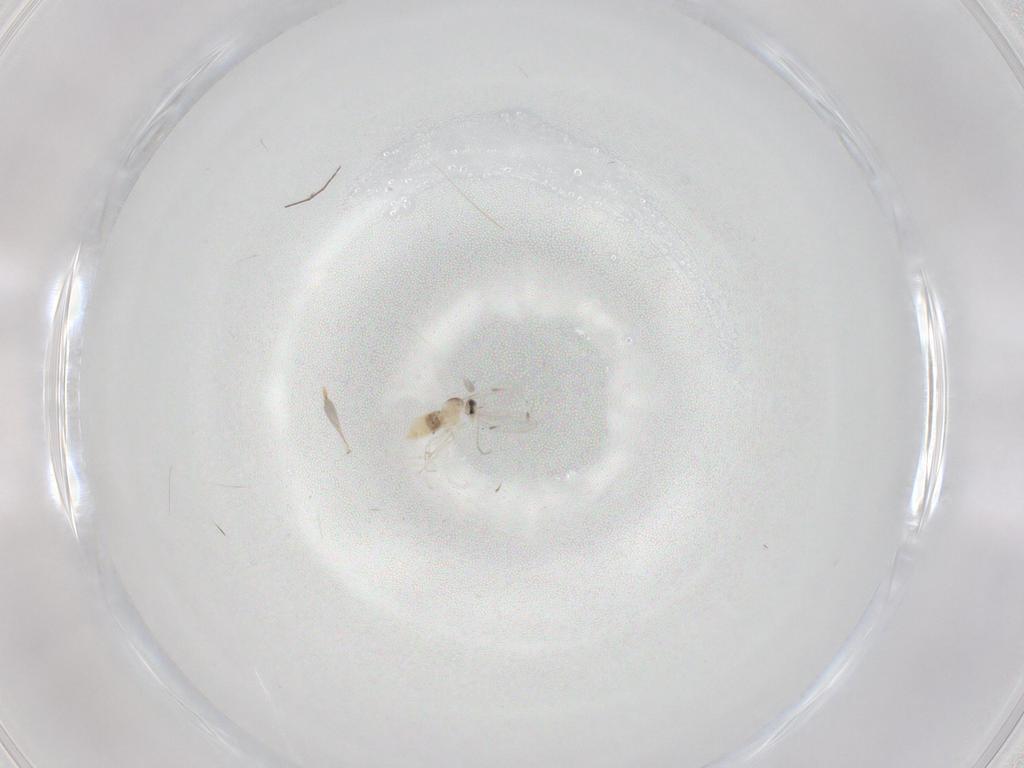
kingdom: Animalia
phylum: Arthropoda
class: Insecta
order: Diptera
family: Cecidomyiidae
